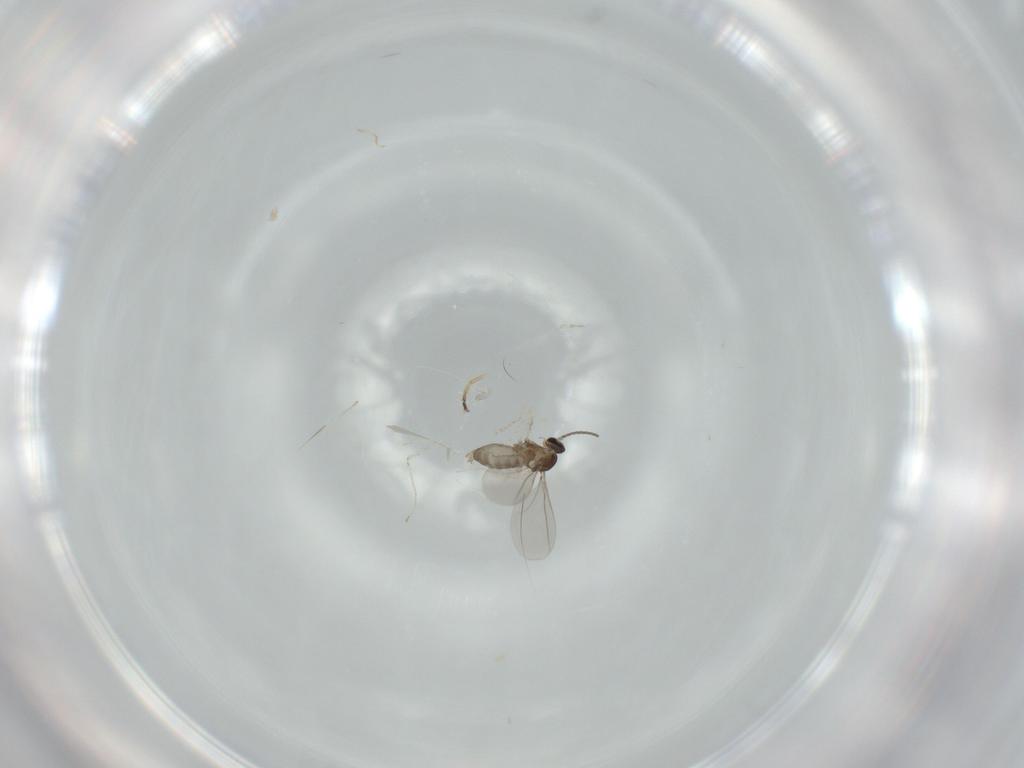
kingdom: Animalia
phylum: Arthropoda
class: Insecta
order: Diptera
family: Cecidomyiidae
